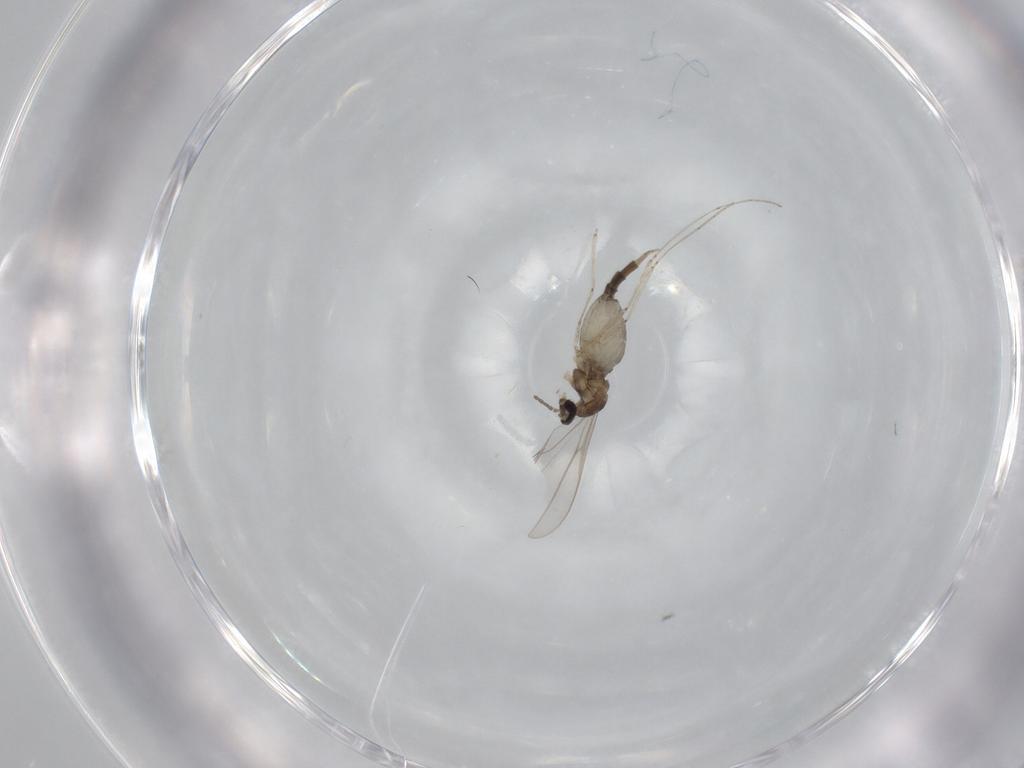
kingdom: Animalia
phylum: Arthropoda
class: Insecta
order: Diptera
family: Cecidomyiidae
